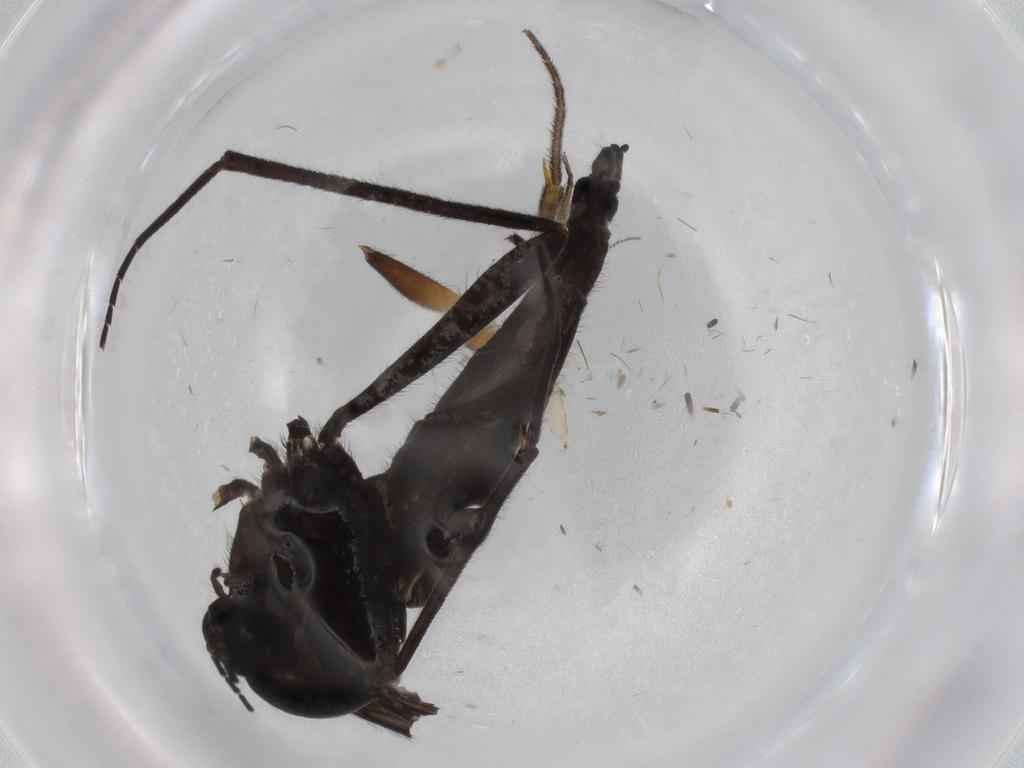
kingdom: Animalia
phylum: Arthropoda
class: Insecta
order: Diptera
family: Sciaridae
